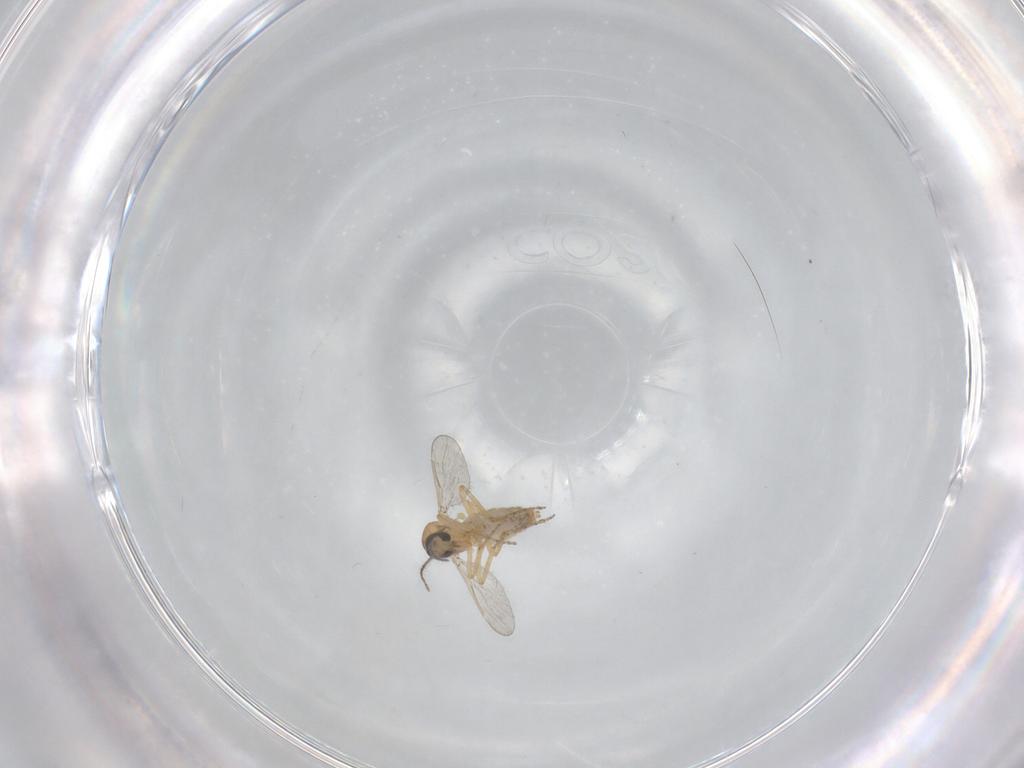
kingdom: Animalia
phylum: Arthropoda
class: Insecta
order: Diptera
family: Ceratopogonidae
